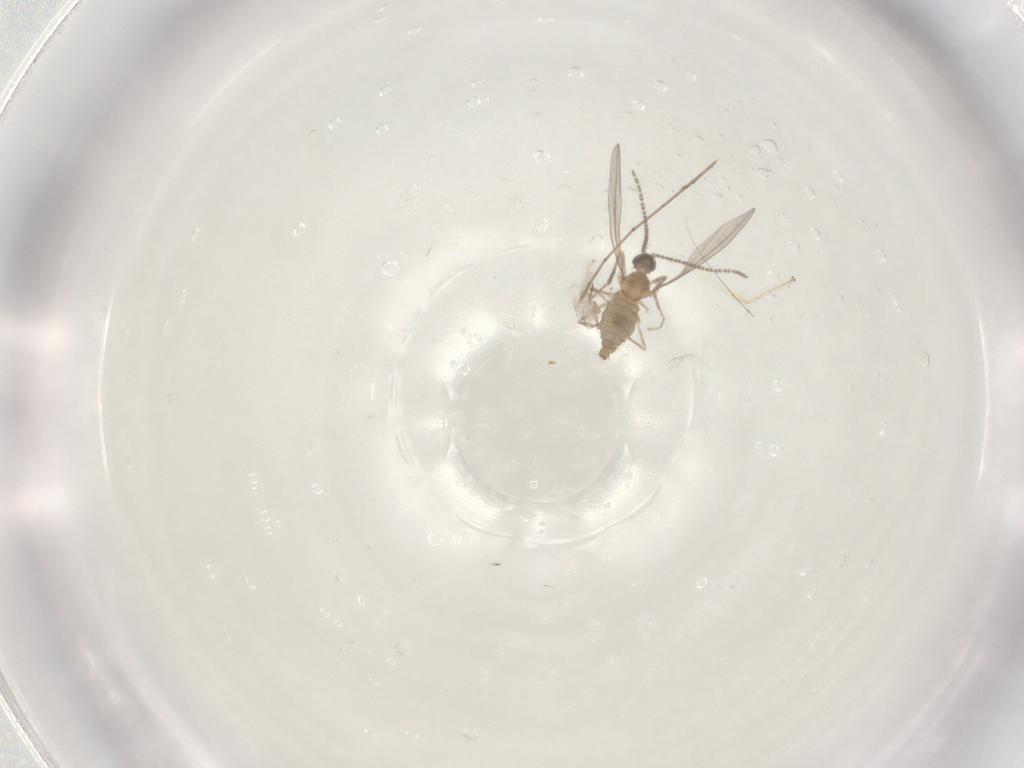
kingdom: Animalia
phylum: Arthropoda
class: Insecta
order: Diptera
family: Cecidomyiidae
